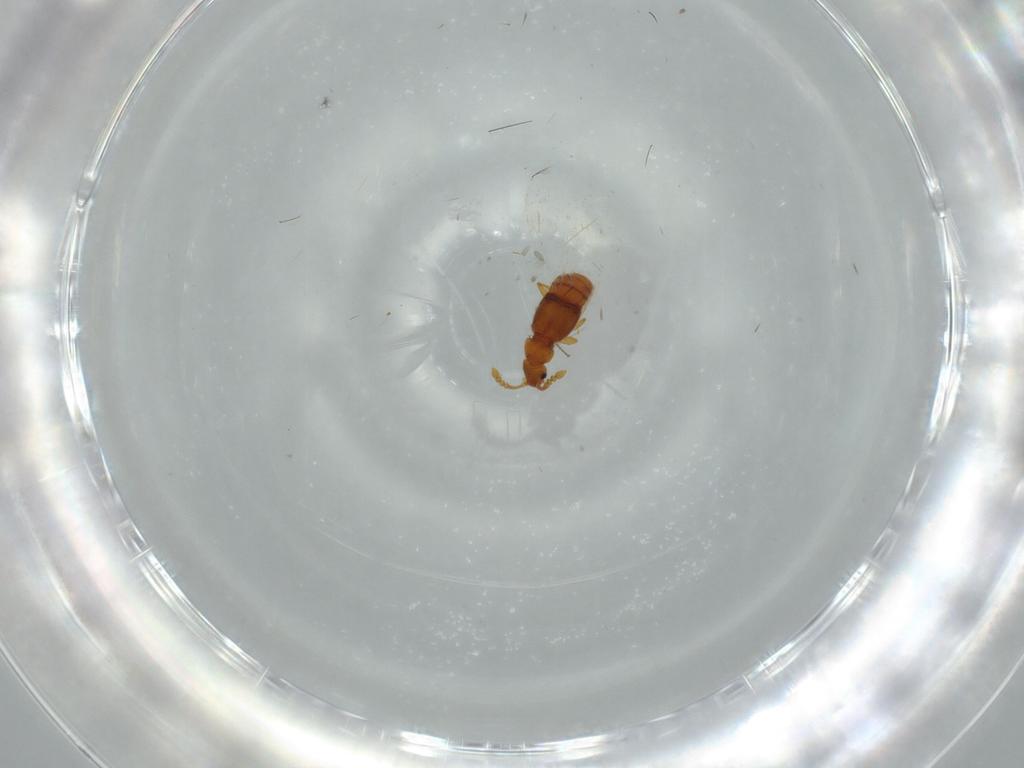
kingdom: Animalia
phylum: Arthropoda
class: Insecta
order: Coleoptera
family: Staphylinidae
